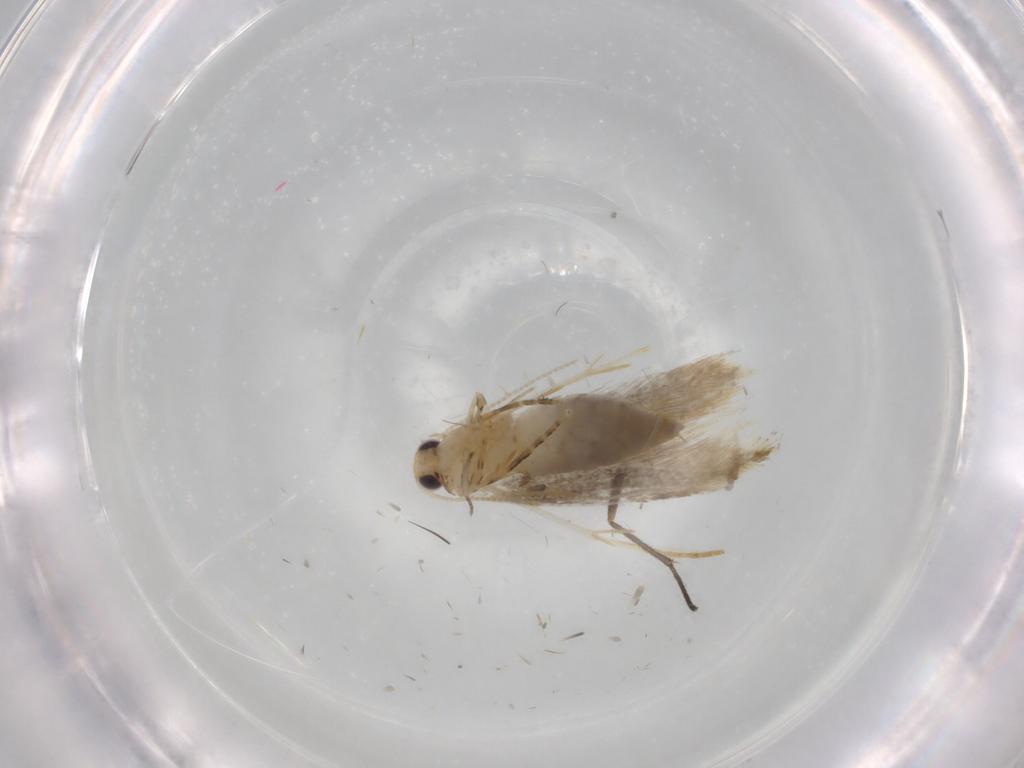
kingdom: Animalia
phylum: Arthropoda
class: Insecta
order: Lepidoptera
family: Tineidae
